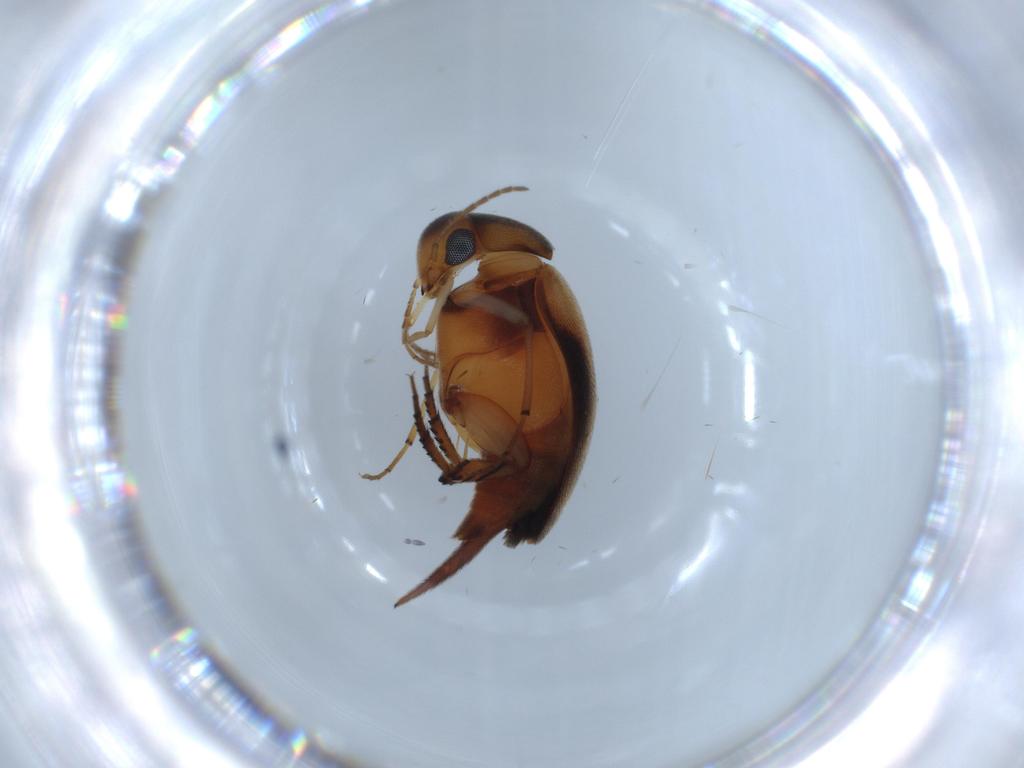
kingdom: Animalia
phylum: Arthropoda
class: Insecta
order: Coleoptera
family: Mordellidae
